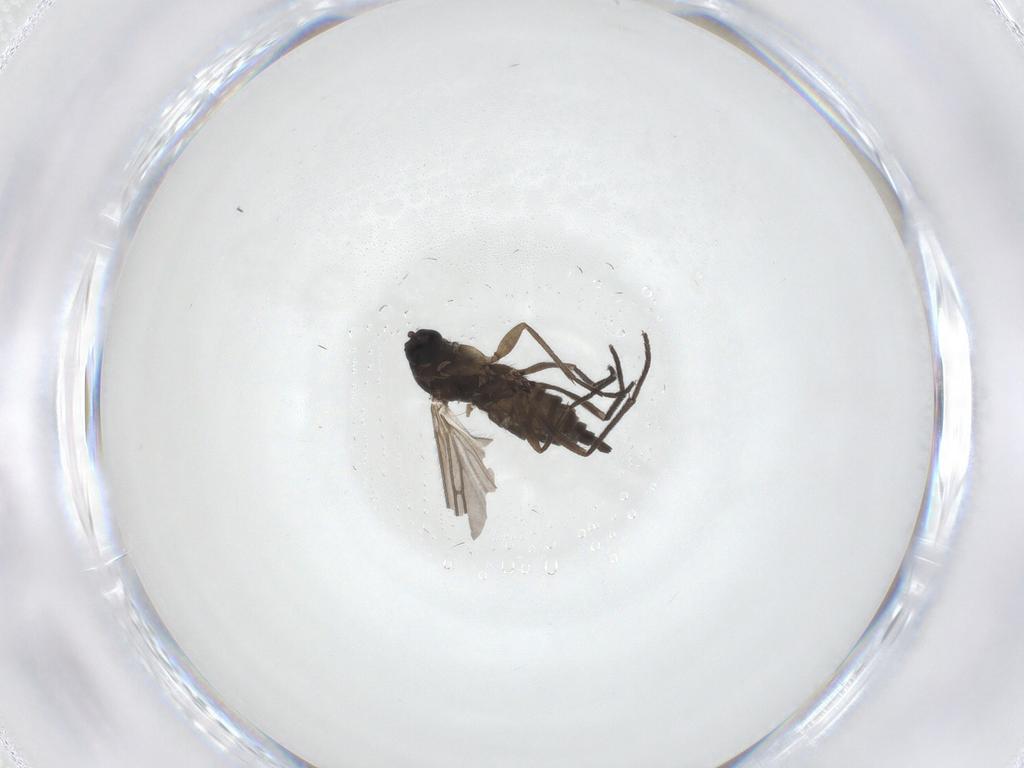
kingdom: Animalia
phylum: Arthropoda
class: Insecta
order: Diptera
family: Sciaridae
